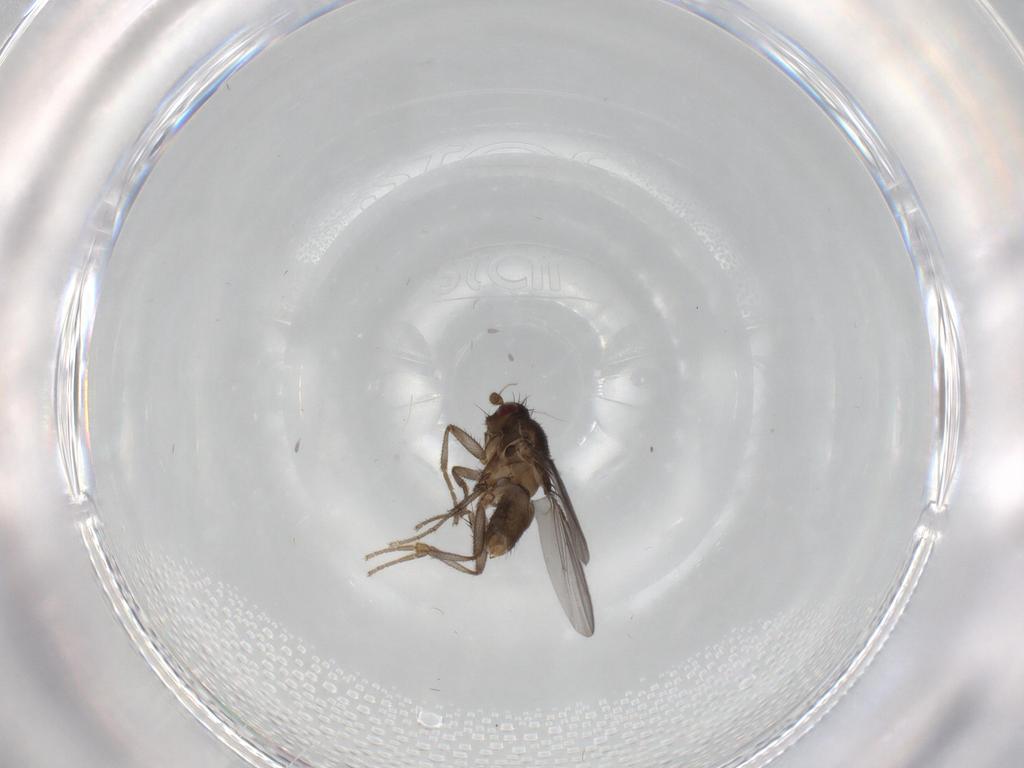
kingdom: Animalia
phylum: Arthropoda
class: Insecta
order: Diptera
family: Sphaeroceridae
